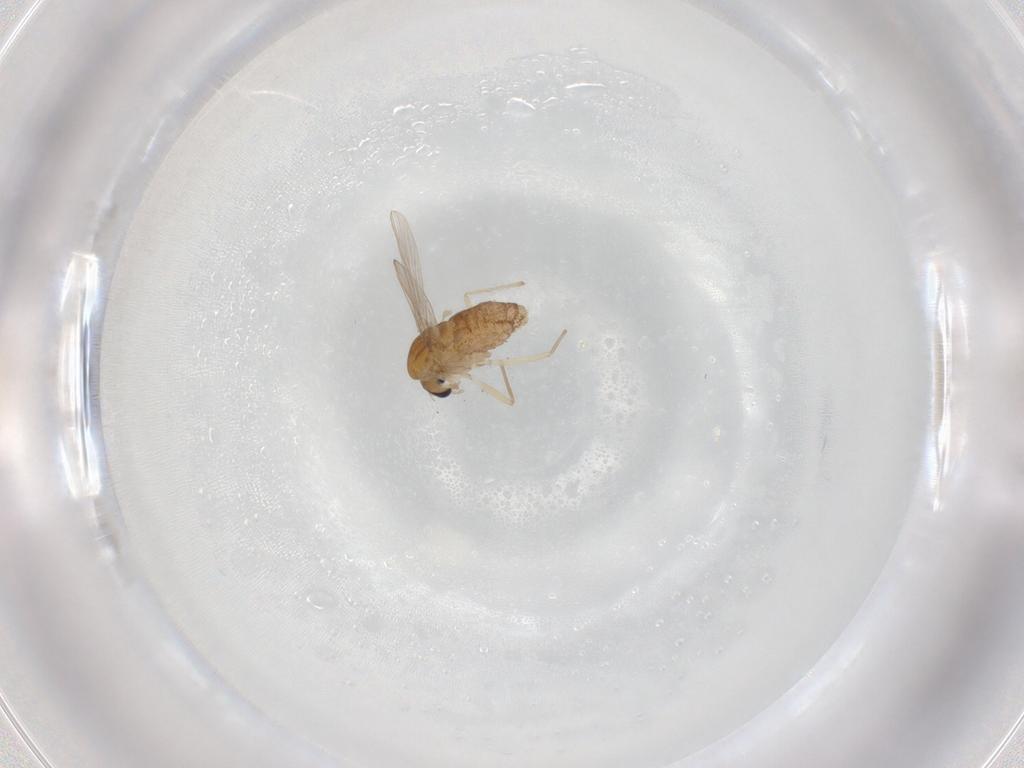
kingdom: Animalia
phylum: Arthropoda
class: Insecta
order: Diptera
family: Chironomidae
